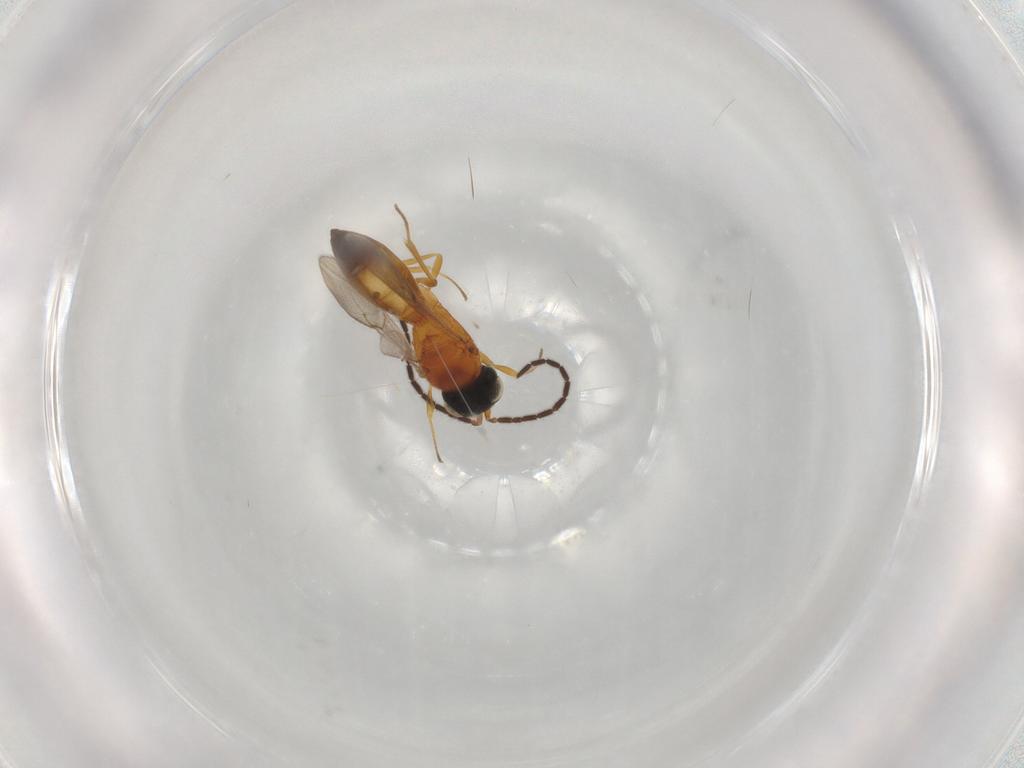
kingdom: Animalia
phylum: Arthropoda
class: Insecta
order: Hymenoptera
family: Scelionidae
